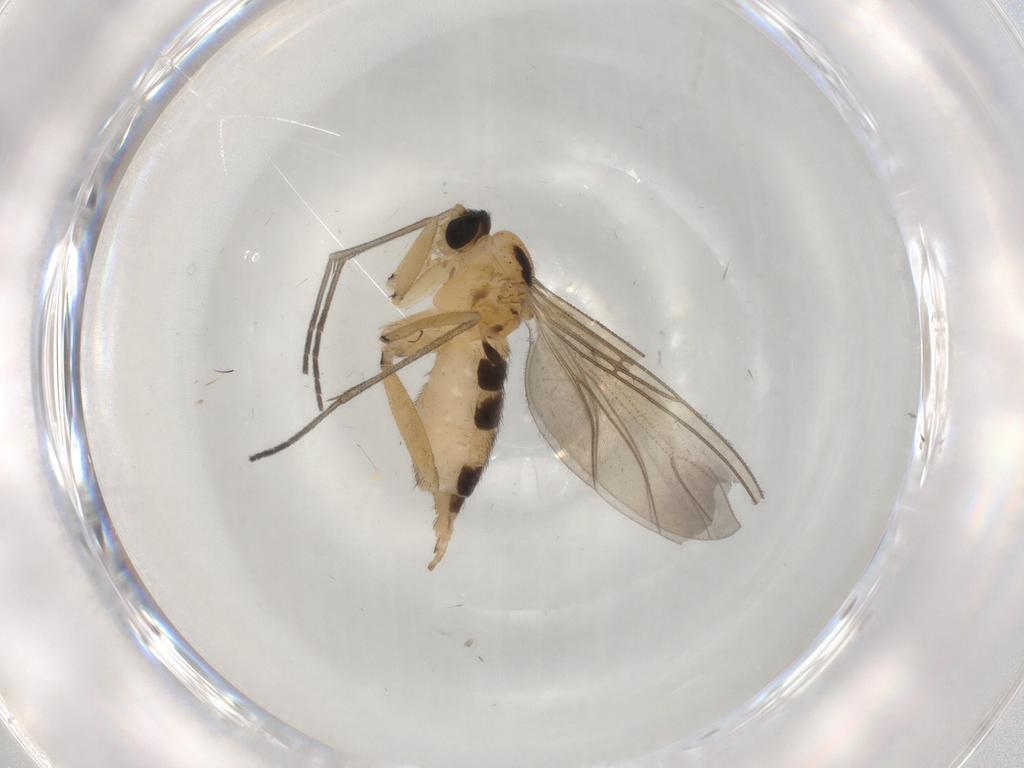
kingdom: Animalia
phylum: Arthropoda
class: Insecta
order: Diptera
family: Sciaridae
